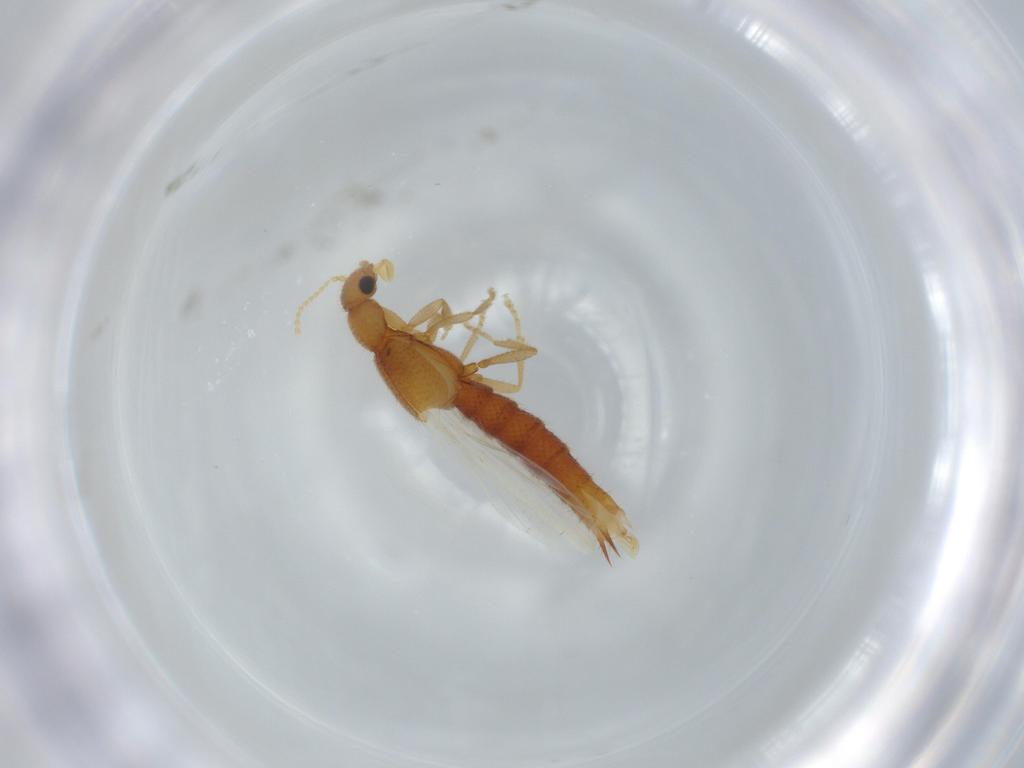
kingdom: Animalia
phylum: Arthropoda
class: Insecta
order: Coleoptera
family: Staphylinidae
